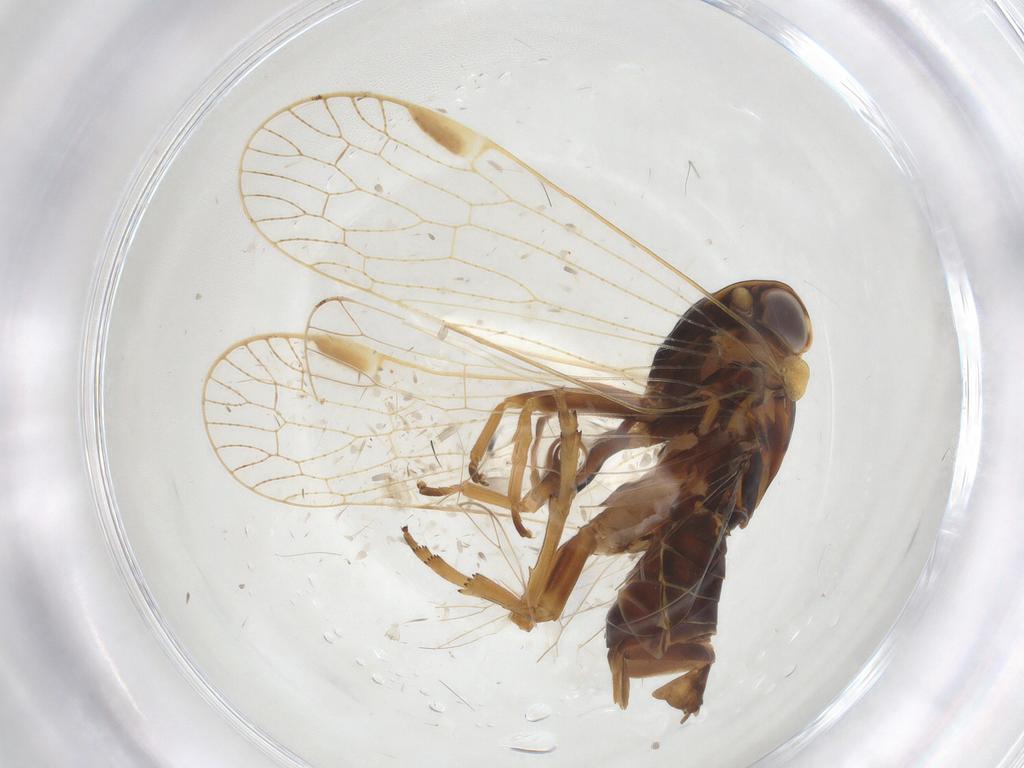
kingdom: Animalia
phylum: Arthropoda
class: Insecta
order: Hemiptera
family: Cixiidae
